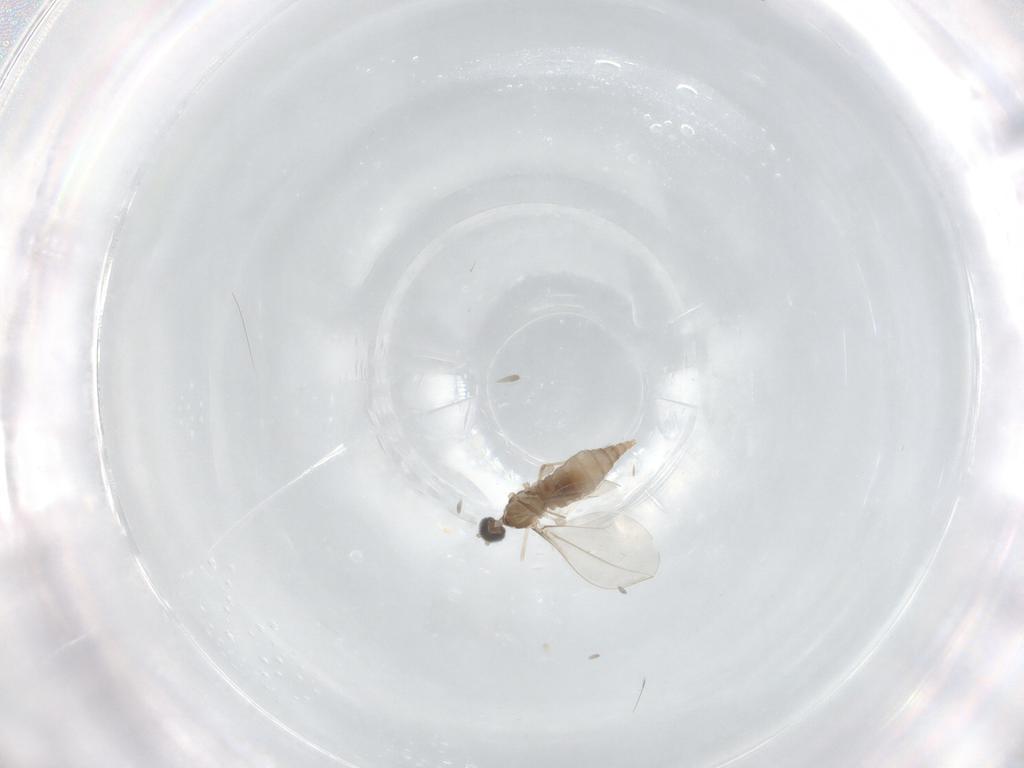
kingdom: Animalia
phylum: Arthropoda
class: Insecta
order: Diptera
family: Cecidomyiidae
